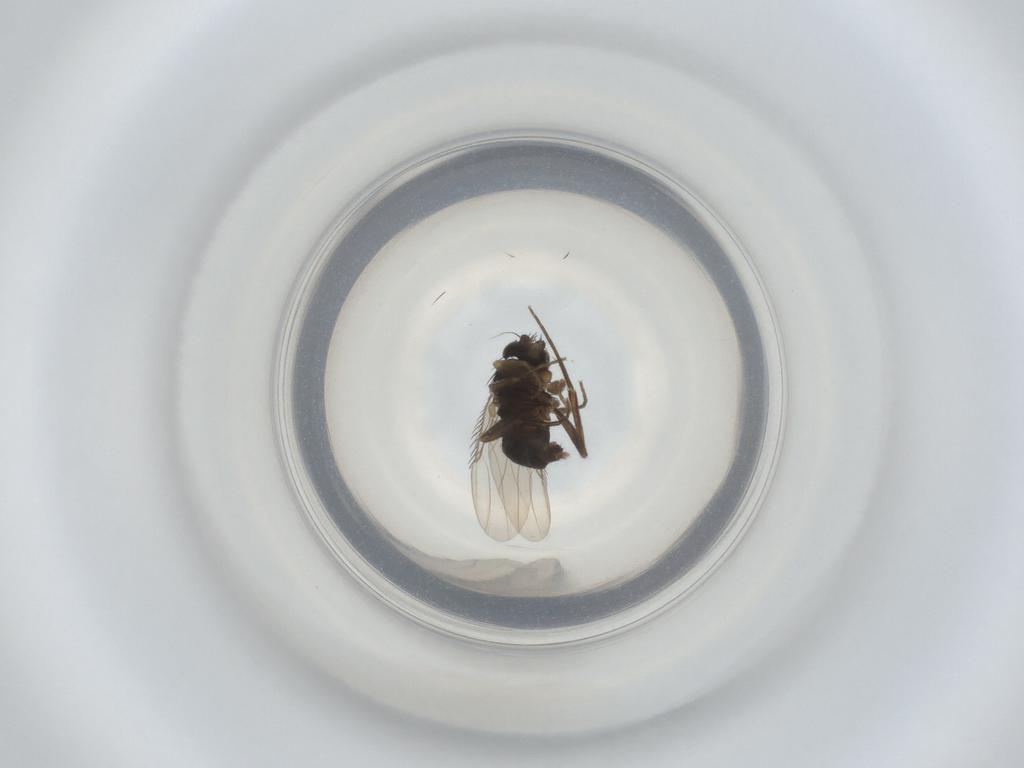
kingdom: Animalia
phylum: Arthropoda
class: Insecta
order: Diptera
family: Phoridae
